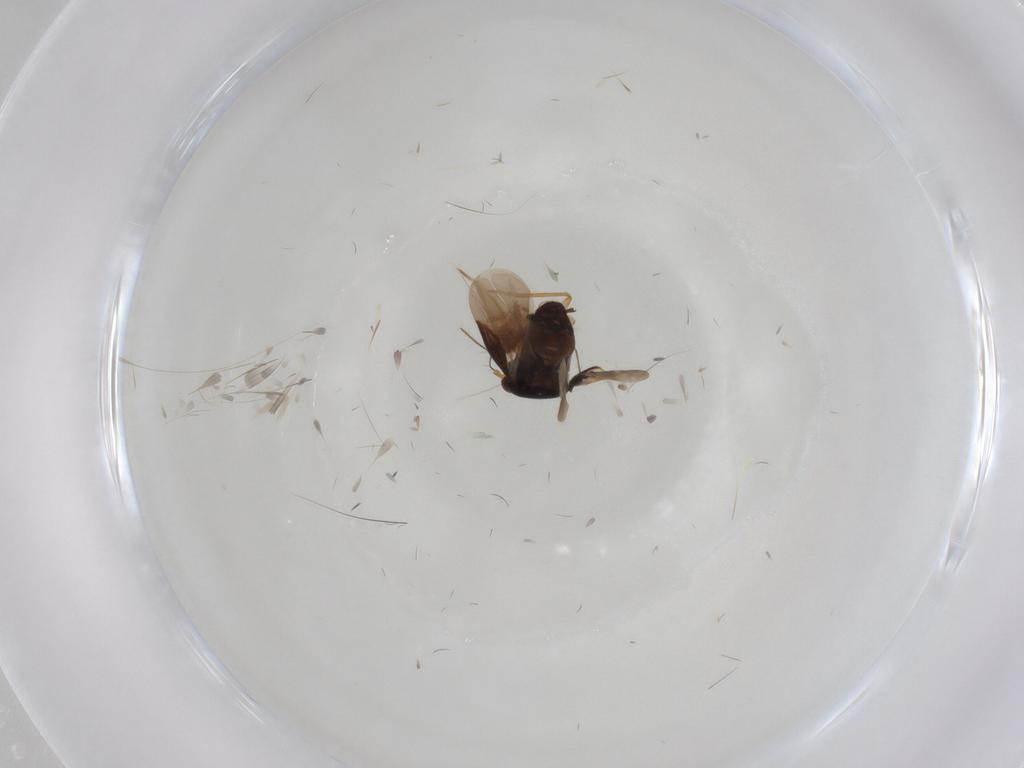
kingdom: Animalia
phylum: Arthropoda
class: Insecta
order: Hemiptera
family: Aphididae
